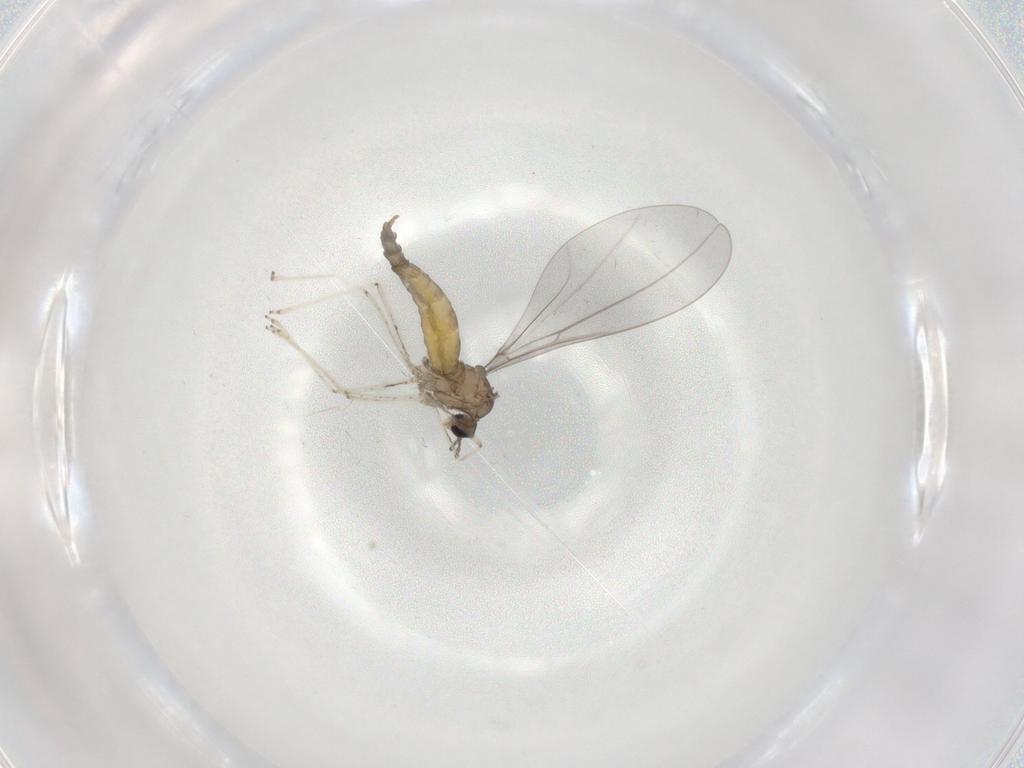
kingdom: Animalia
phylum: Arthropoda
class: Insecta
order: Diptera
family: Cecidomyiidae
